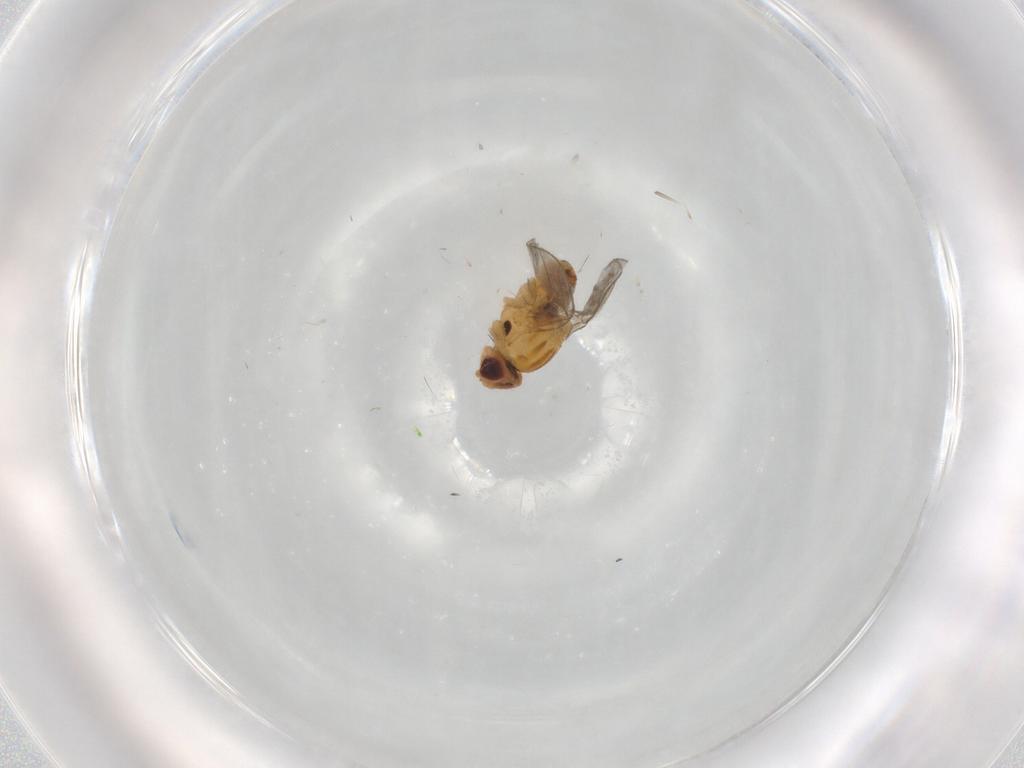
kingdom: Animalia
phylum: Arthropoda
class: Insecta
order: Diptera
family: Chloropidae
